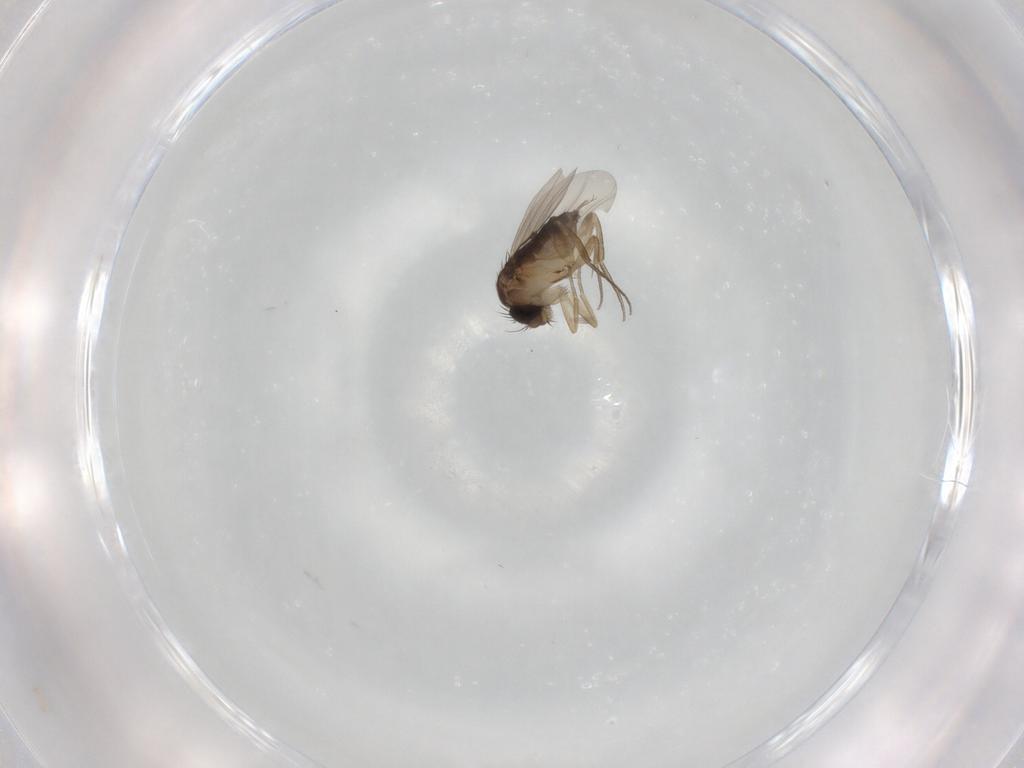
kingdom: Animalia
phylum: Arthropoda
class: Insecta
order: Diptera
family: Phoridae
